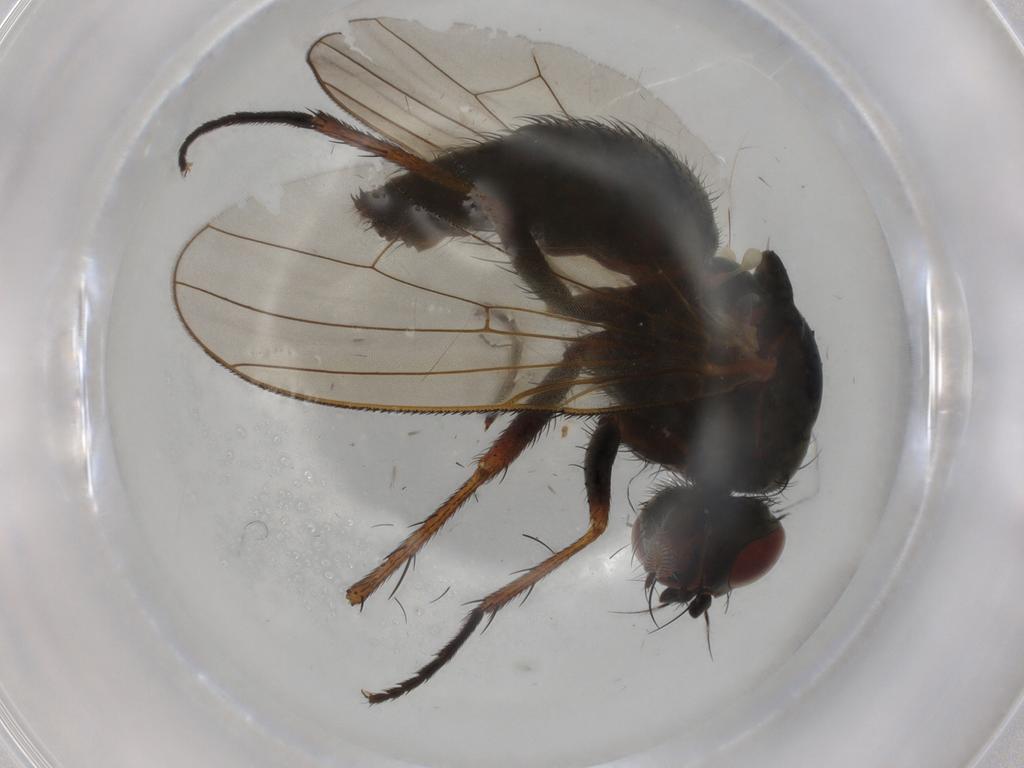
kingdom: Animalia
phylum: Arthropoda
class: Insecta
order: Diptera
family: Anthomyiidae
